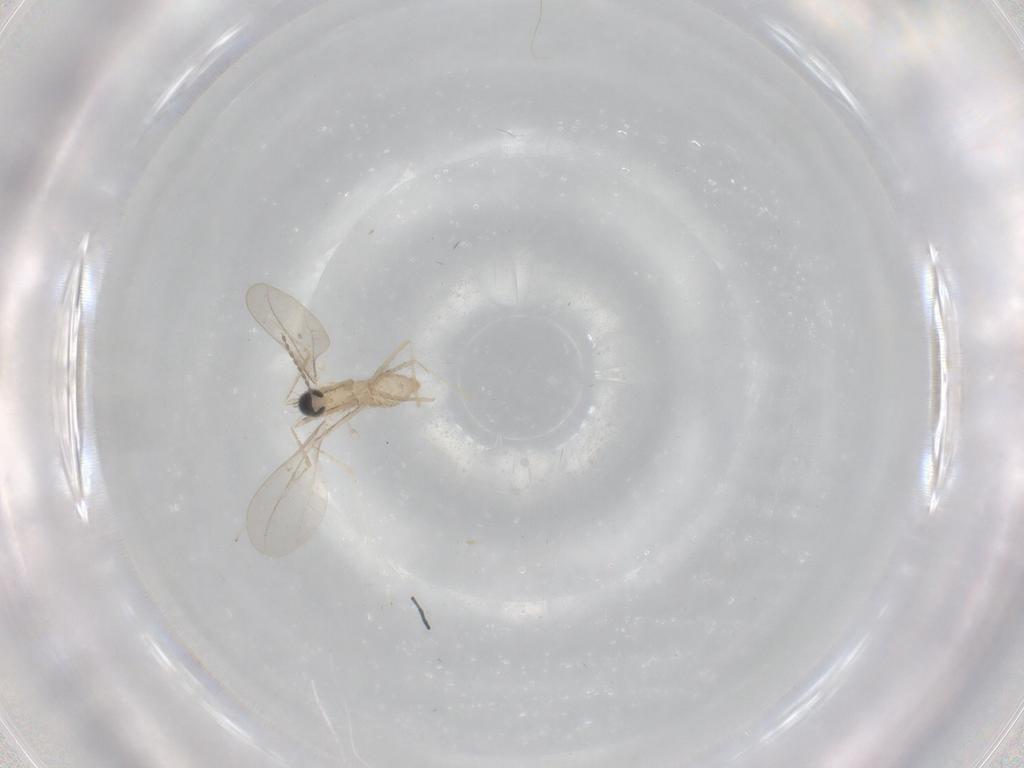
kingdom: Animalia
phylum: Arthropoda
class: Insecta
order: Diptera
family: Cecidomyiidae
